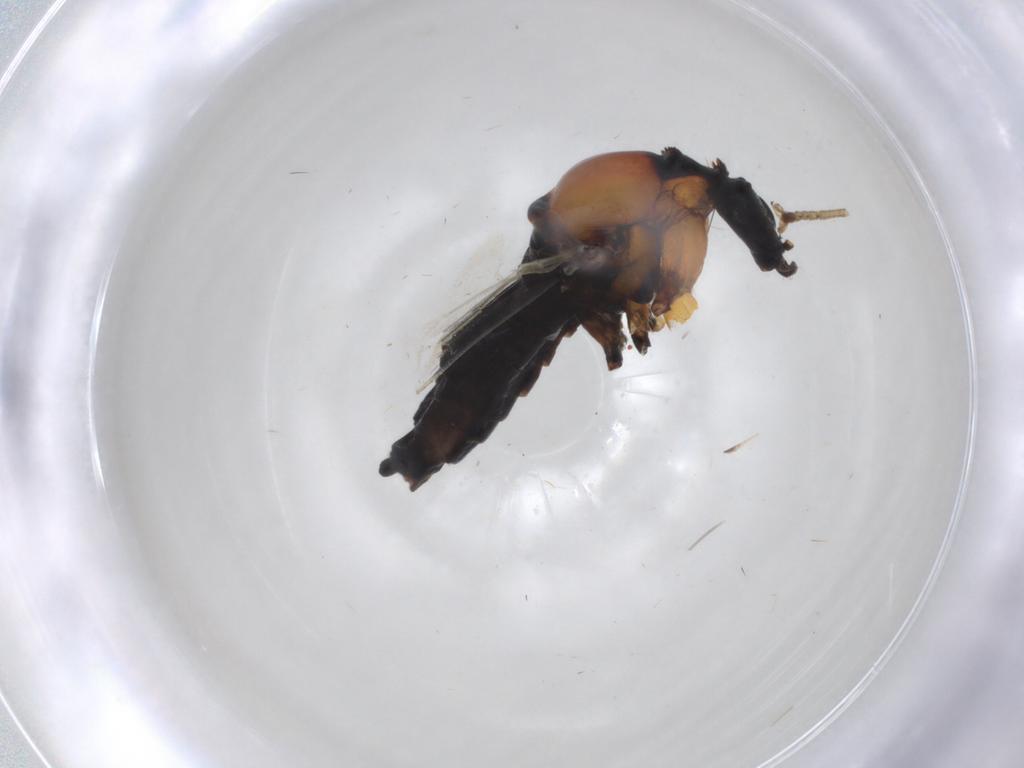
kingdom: Animalia
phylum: Arthropoda
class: Insecta
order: Diptera
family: Bibionidae
